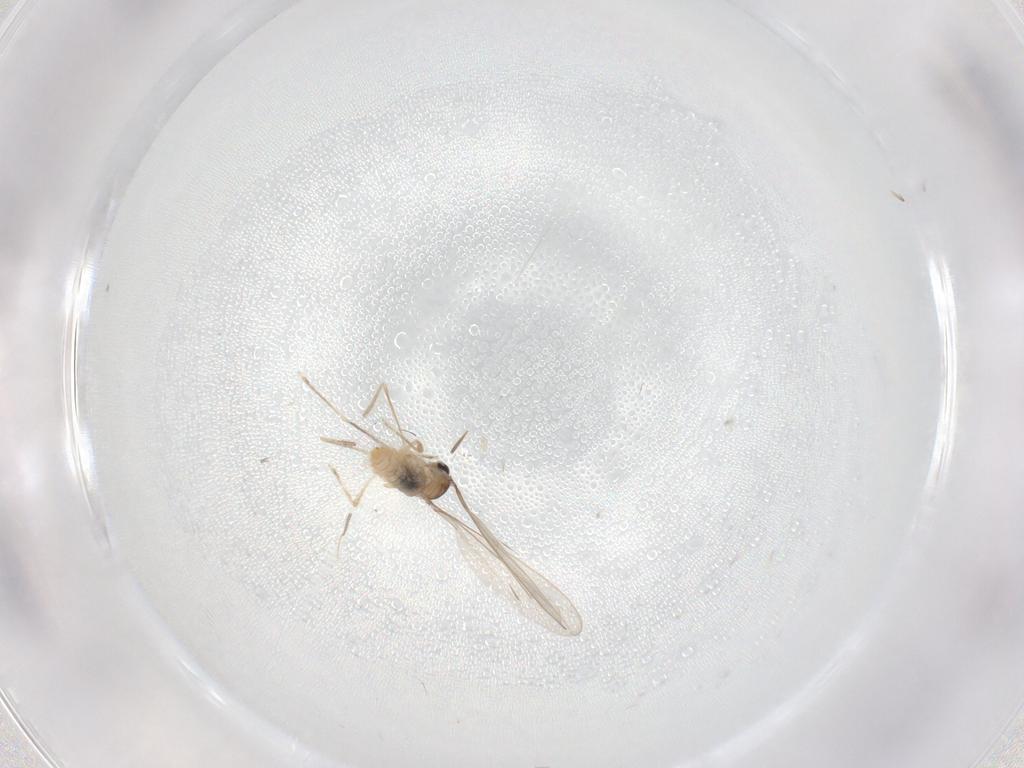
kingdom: Animalia
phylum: Arthropoda
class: Insecta
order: Diptera
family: Cecidomyiidae
